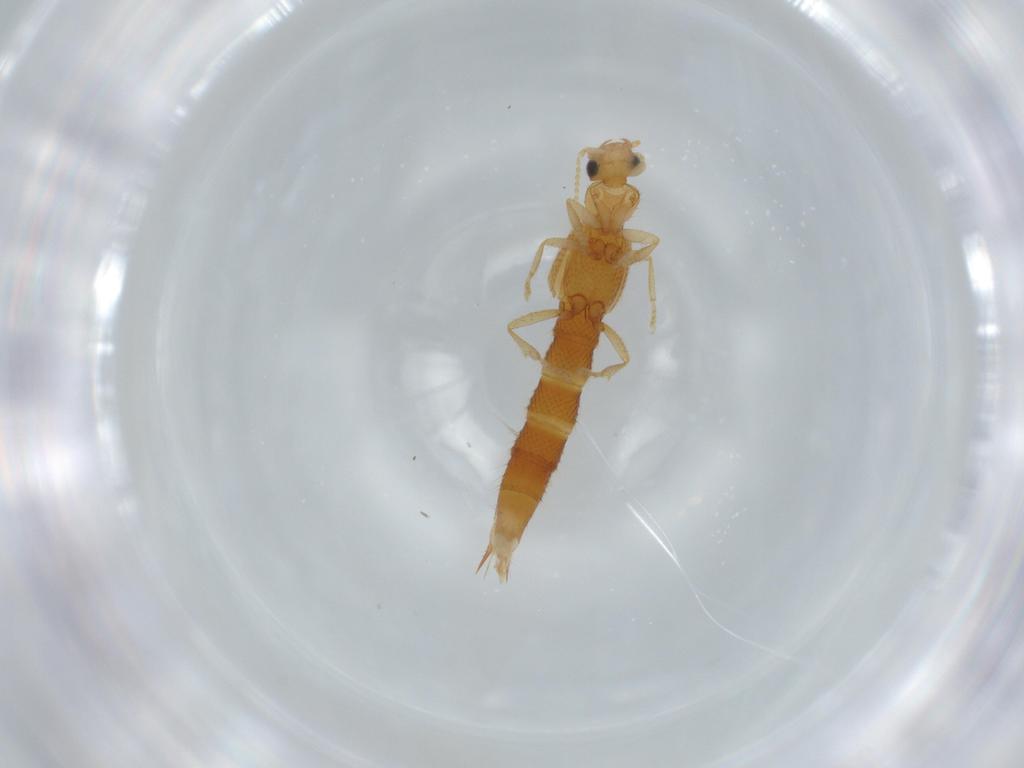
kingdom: Animalia
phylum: Arthropoda
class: Insecta
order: Coleoptera
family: Staphylinidae
